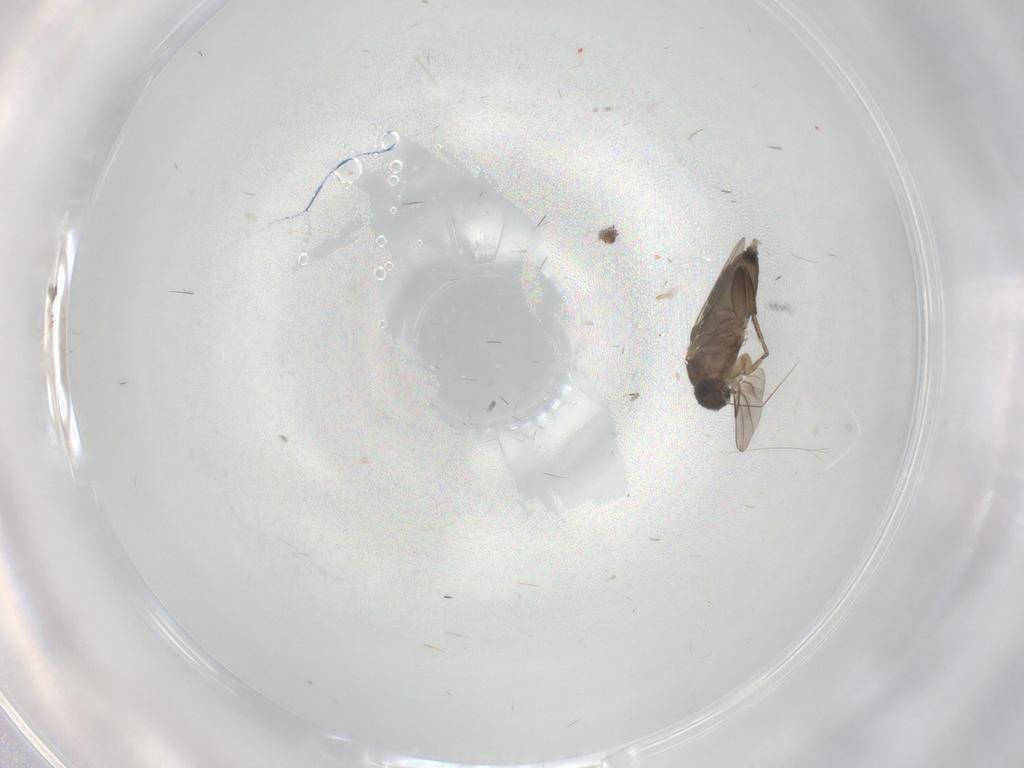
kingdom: Animalia
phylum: Arthropoda
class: Insecta
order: Diptera
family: Phoridae
